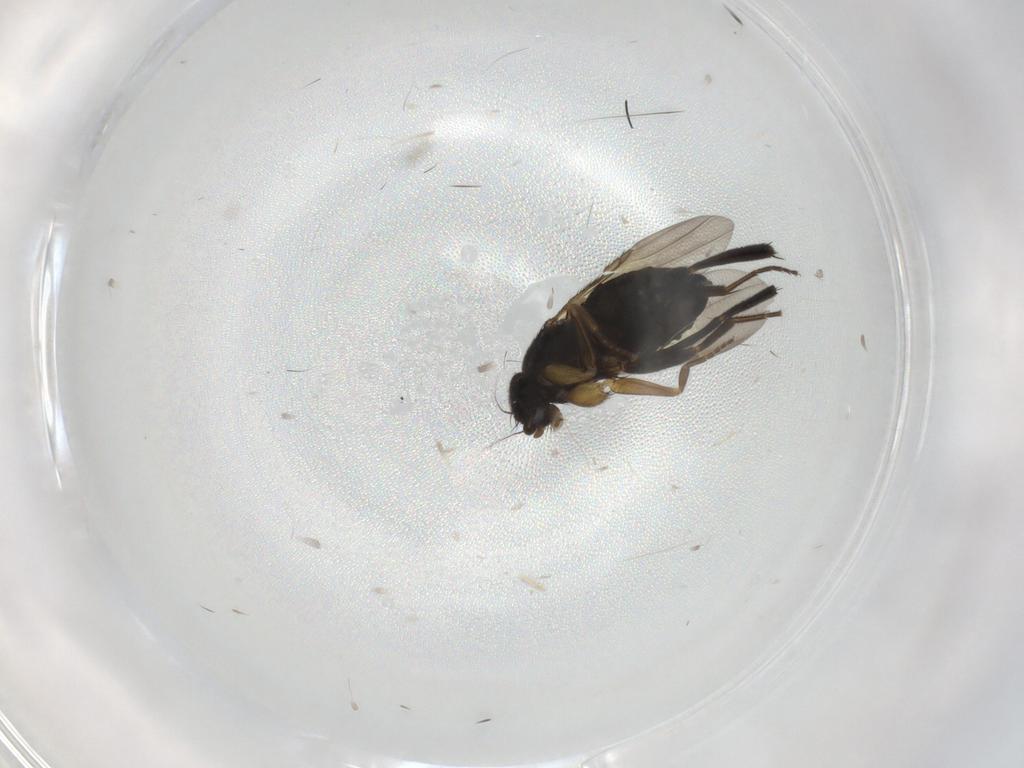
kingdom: Animalia
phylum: Arthropoda
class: Insecta
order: Diptera
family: Phoridae
